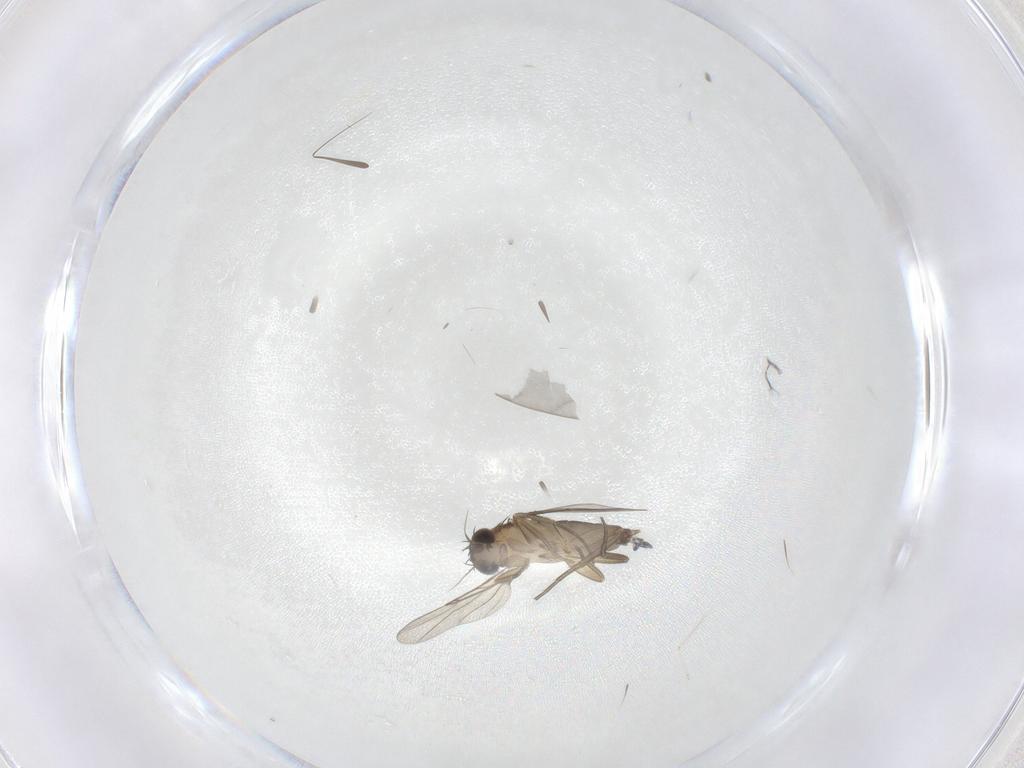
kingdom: Animalia
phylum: Arthropoda
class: Insecta
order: Diptera
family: Phoridae
